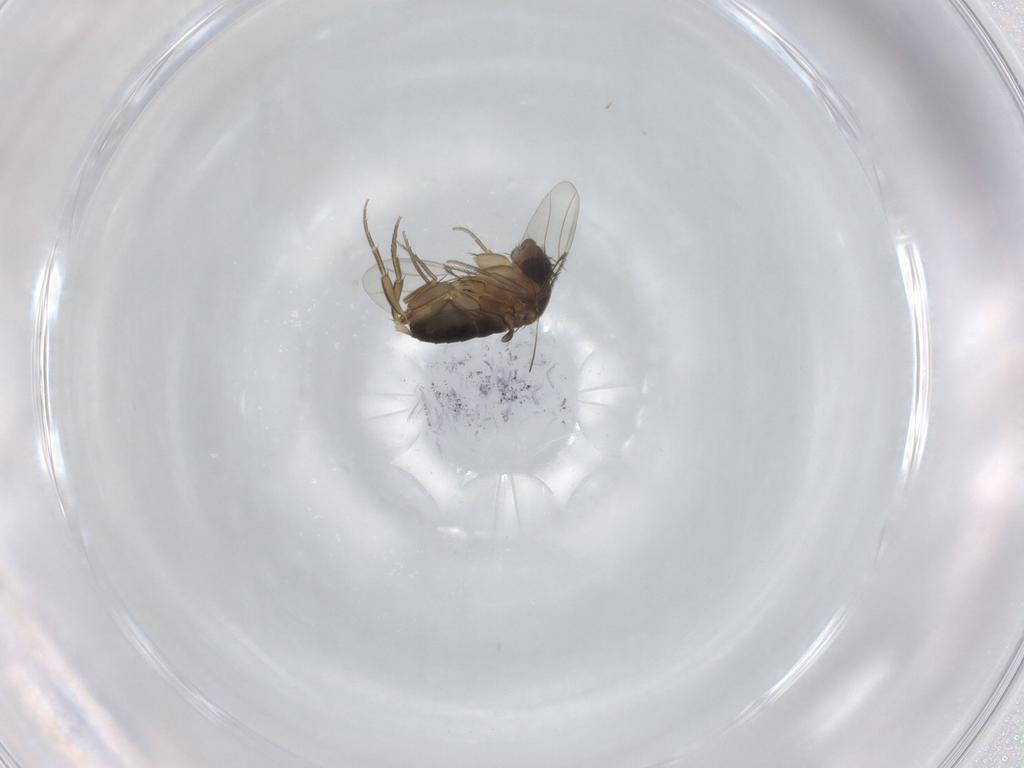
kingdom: Animalia
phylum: Arthropoda
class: Insecta
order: Diptera
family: Phoridae
